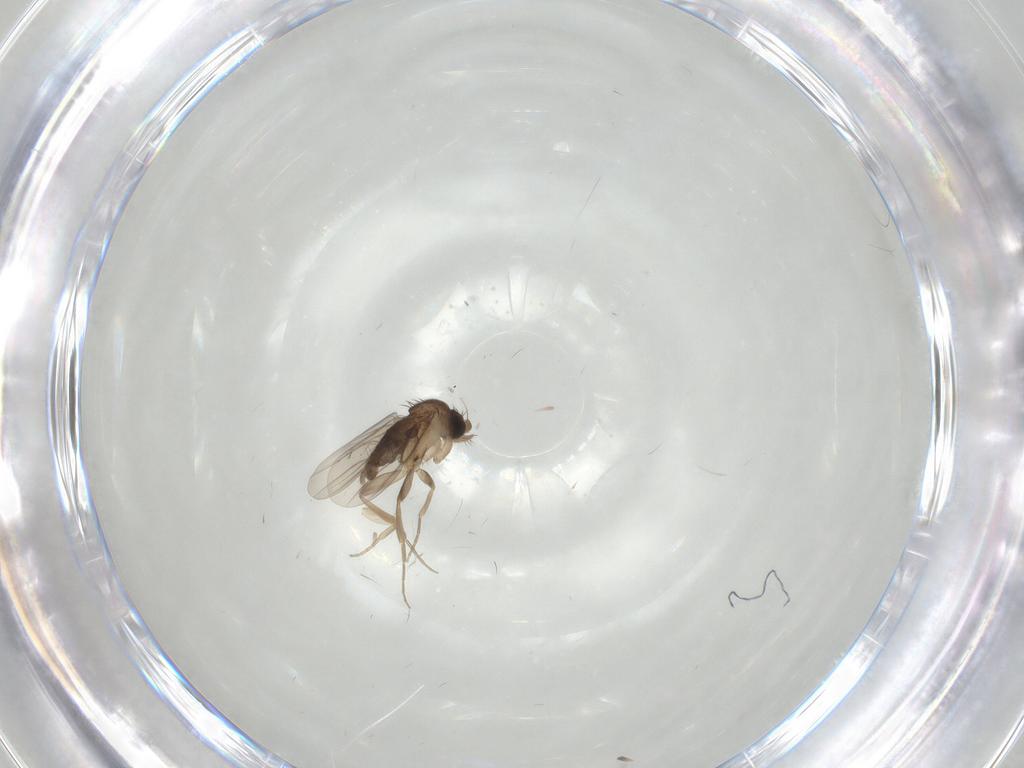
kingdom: Animalia
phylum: Arthropoda
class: Insecta
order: Diptera
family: Phoridae
